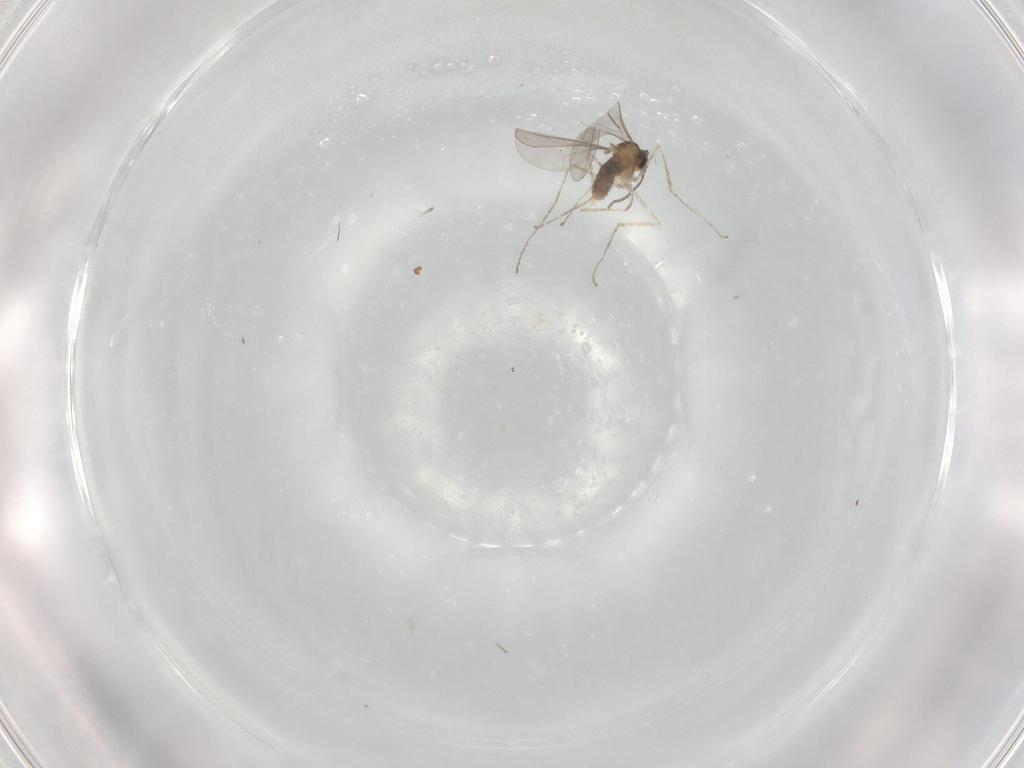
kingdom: Animalia
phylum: Arthropoda
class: Insecta
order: Diptera
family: Cecidomyiidae
